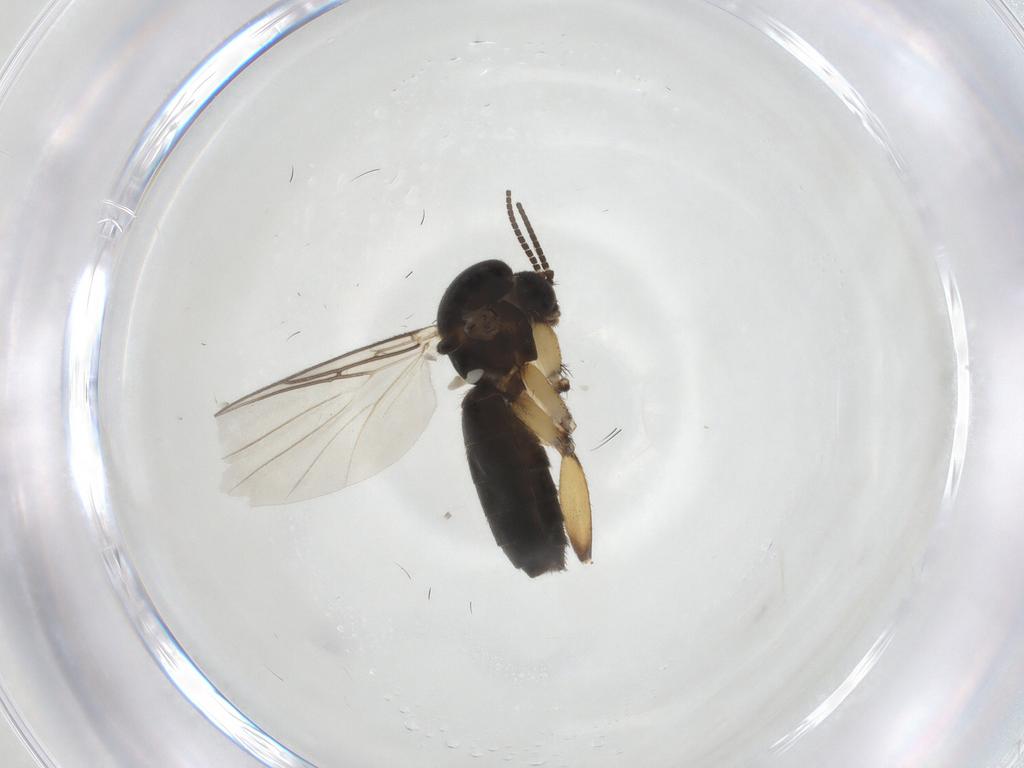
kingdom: Animalia
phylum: Arthropoda
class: Insecta
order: Diptera
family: Mycetophilidae
